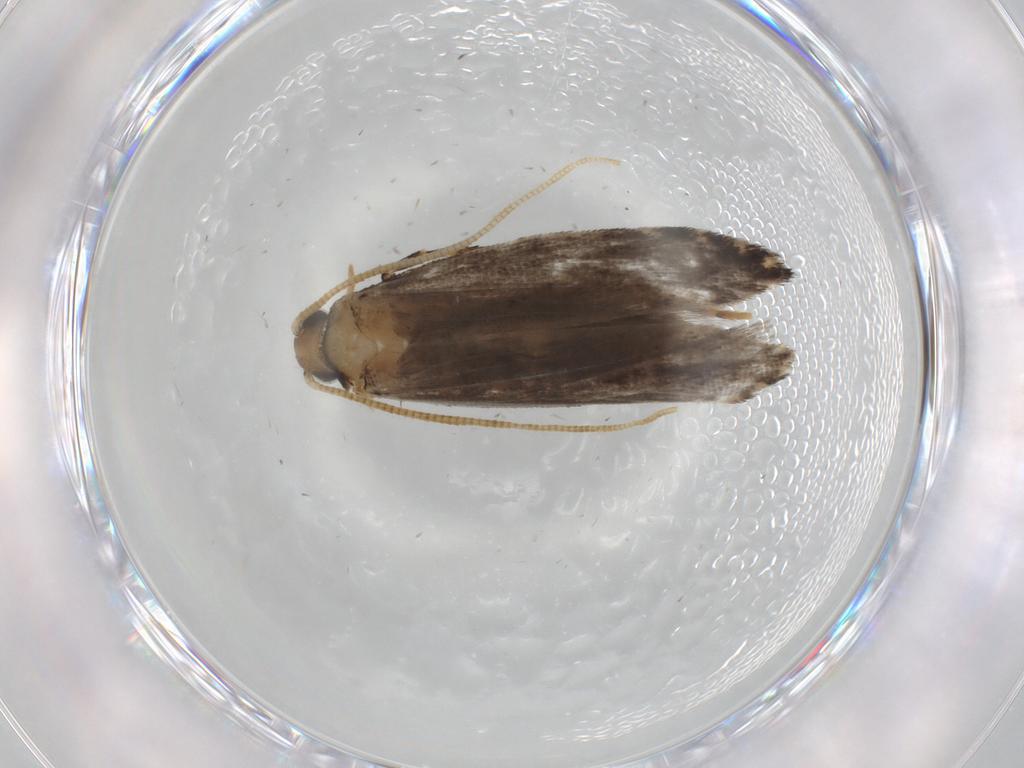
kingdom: Animalia
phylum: Arthropoda
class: Insecta
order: Lepidoptera
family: Tineidae
